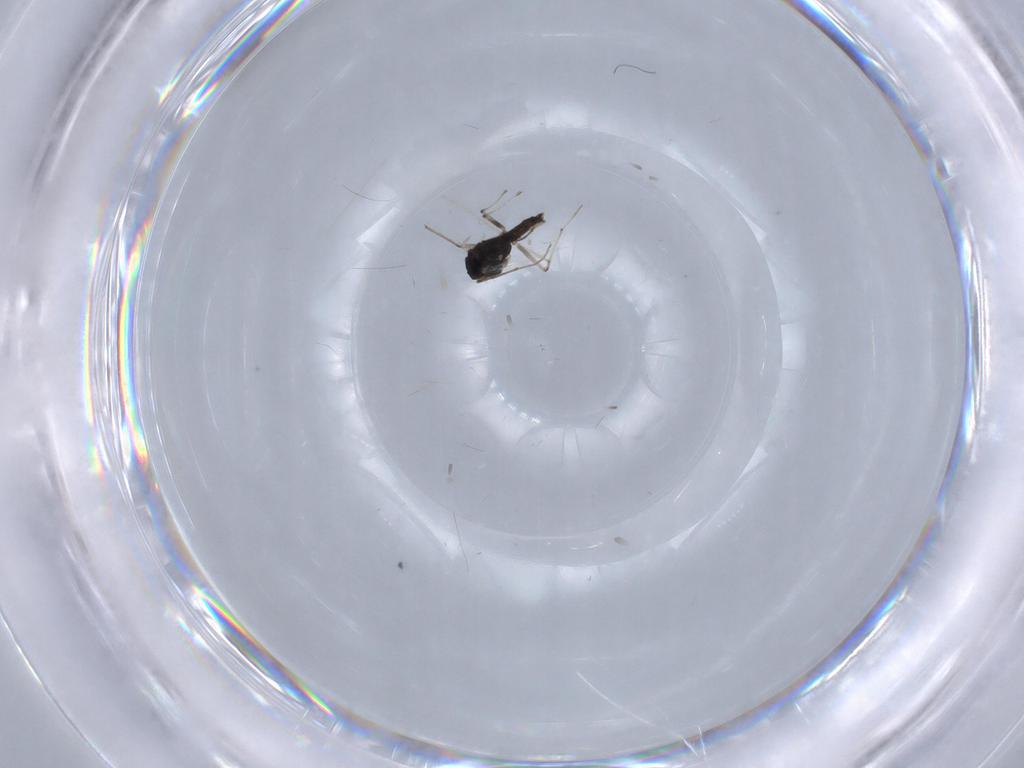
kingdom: Animalia
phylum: Arthropoda
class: Insecta
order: Diptera
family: Chironomidae
